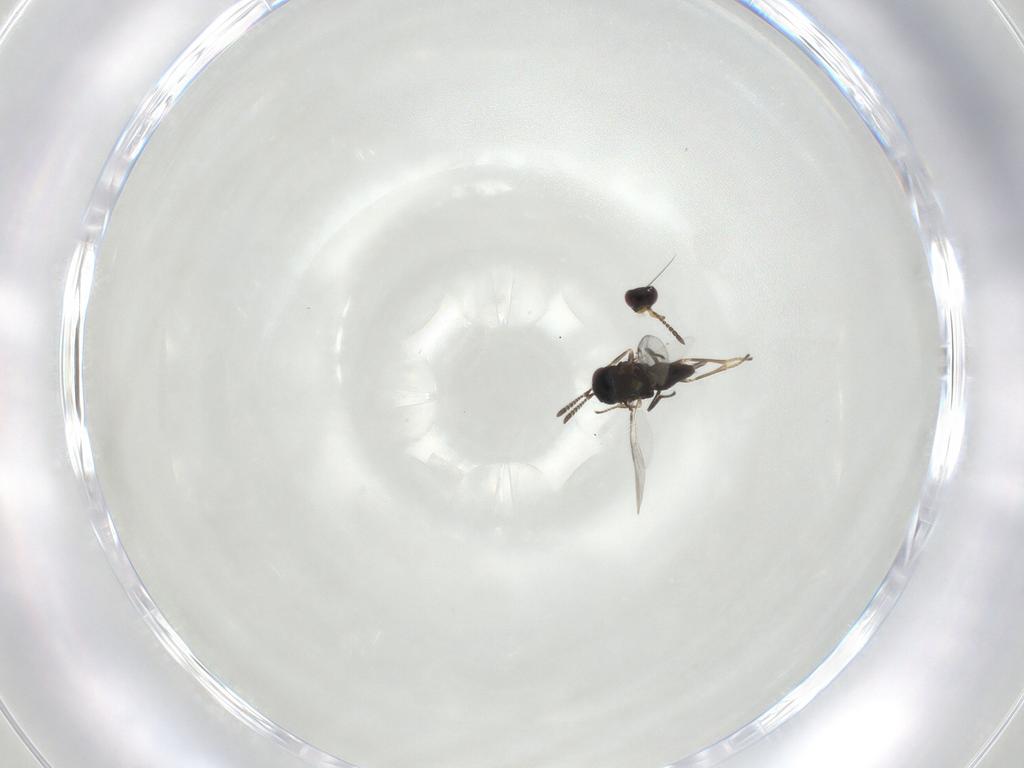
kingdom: Animalia
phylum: Arthropoda
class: Insecta
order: Hymenoptera
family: Ceraphronidae
